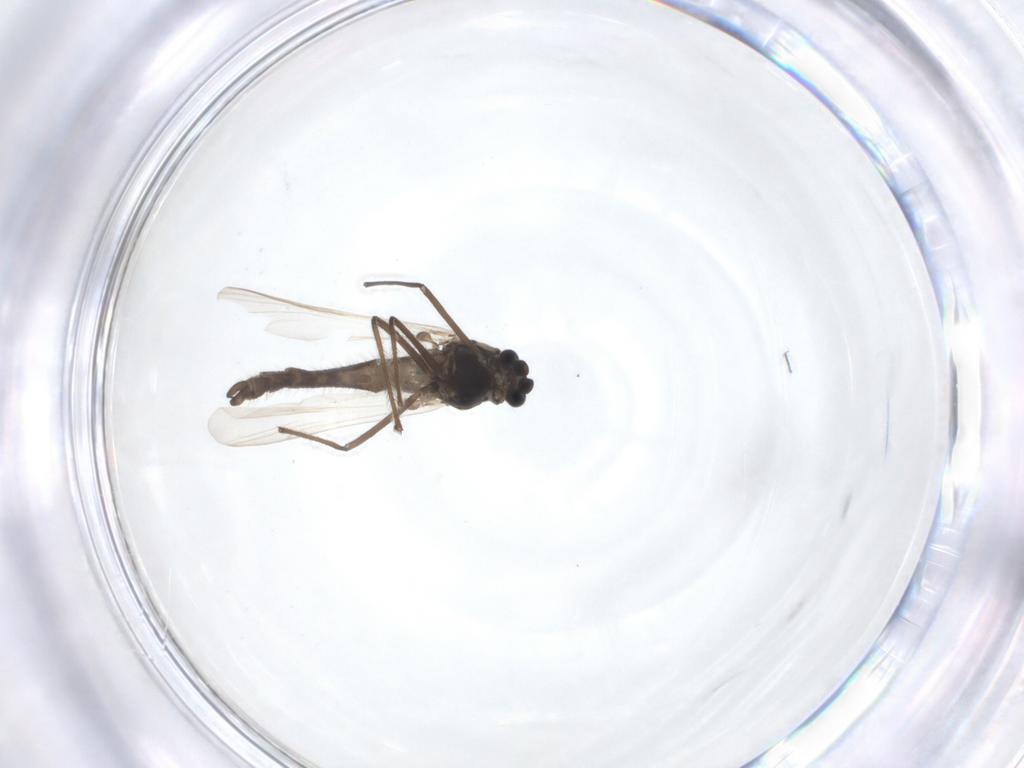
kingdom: Animalia
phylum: Arthropoda
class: Insecta
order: Diptera
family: Chironomidae
